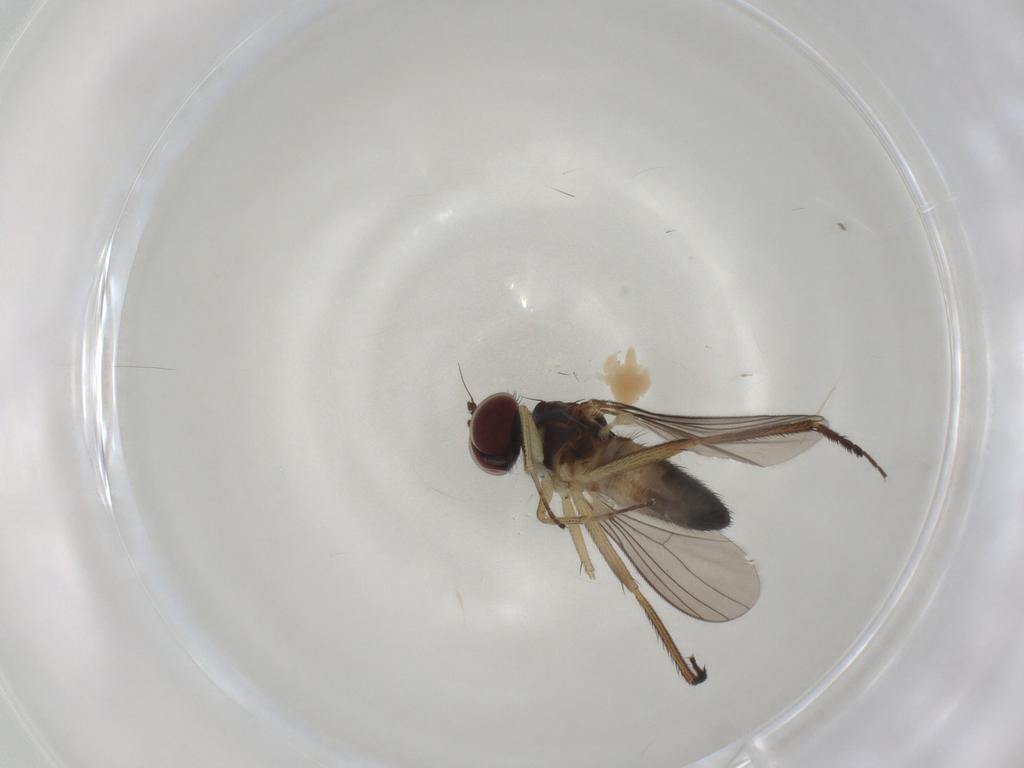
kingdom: Animalia
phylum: Arthropoda
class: Insecta
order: Diptera
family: Dolichopodidae
